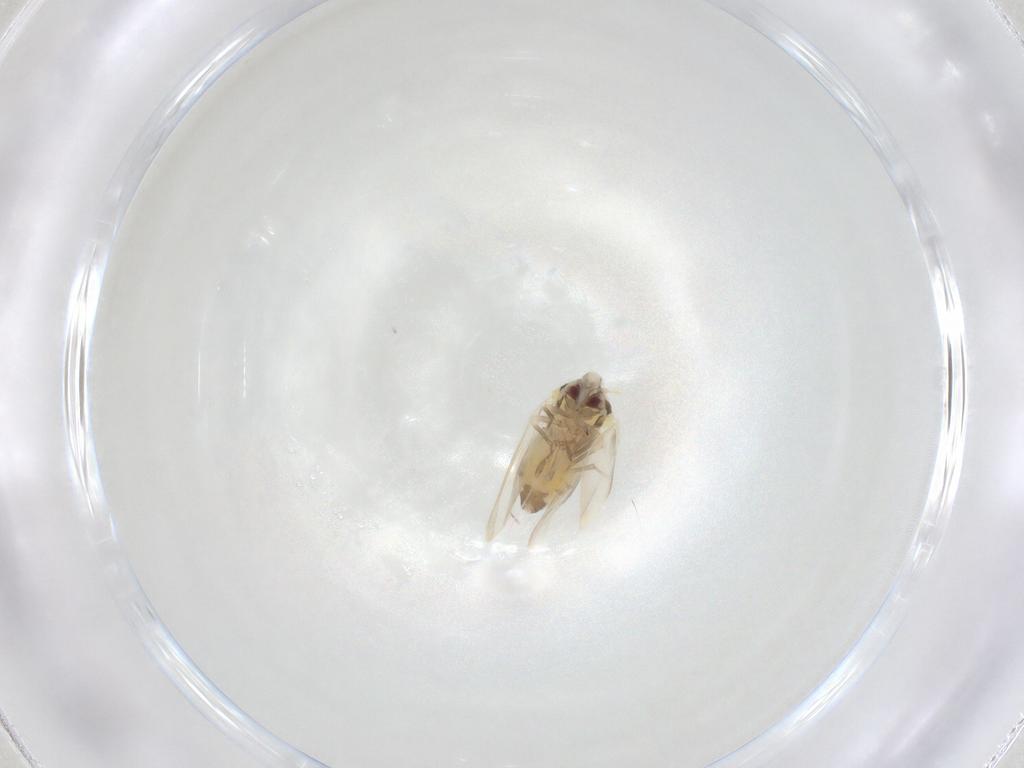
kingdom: Animalia
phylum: Arthropoda
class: Insecta
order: Hemiptera
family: Aleyrodidae
